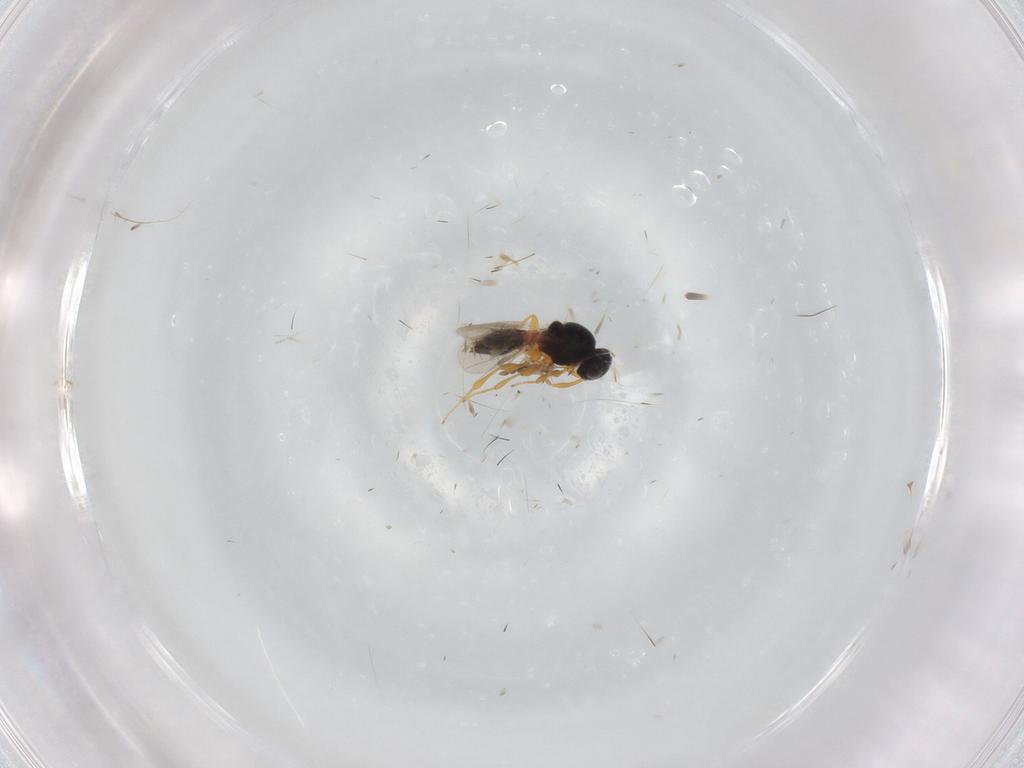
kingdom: Animalia
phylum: Arthropoda
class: Insecta
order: Hymenoptera
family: Platygastridae
